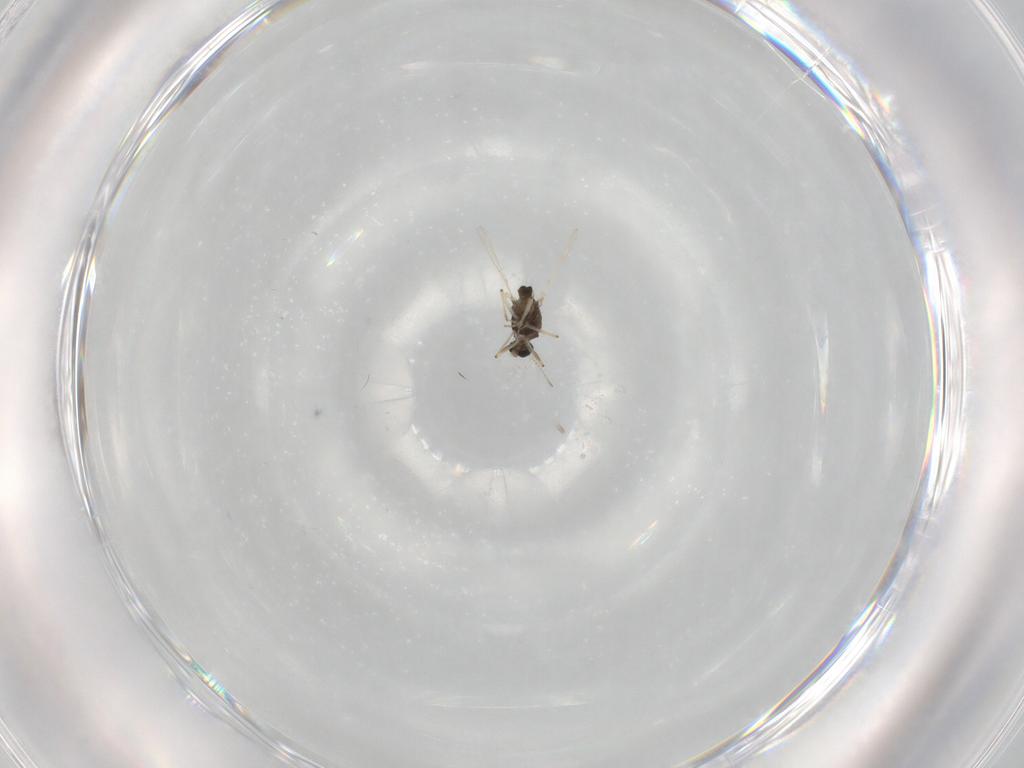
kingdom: Animalia
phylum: Arthropoda
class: Insecta
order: Diptera
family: Chironomidae
